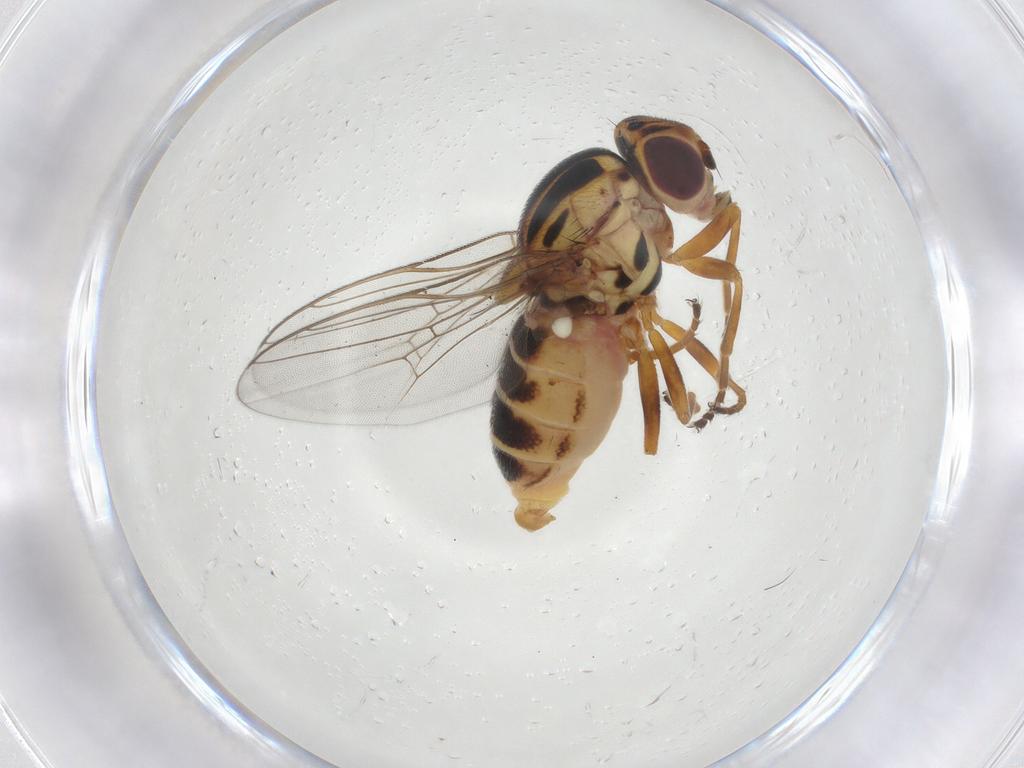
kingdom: Animalia
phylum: Arthropoda
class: Insecta
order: Diptera
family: Chloropidae
